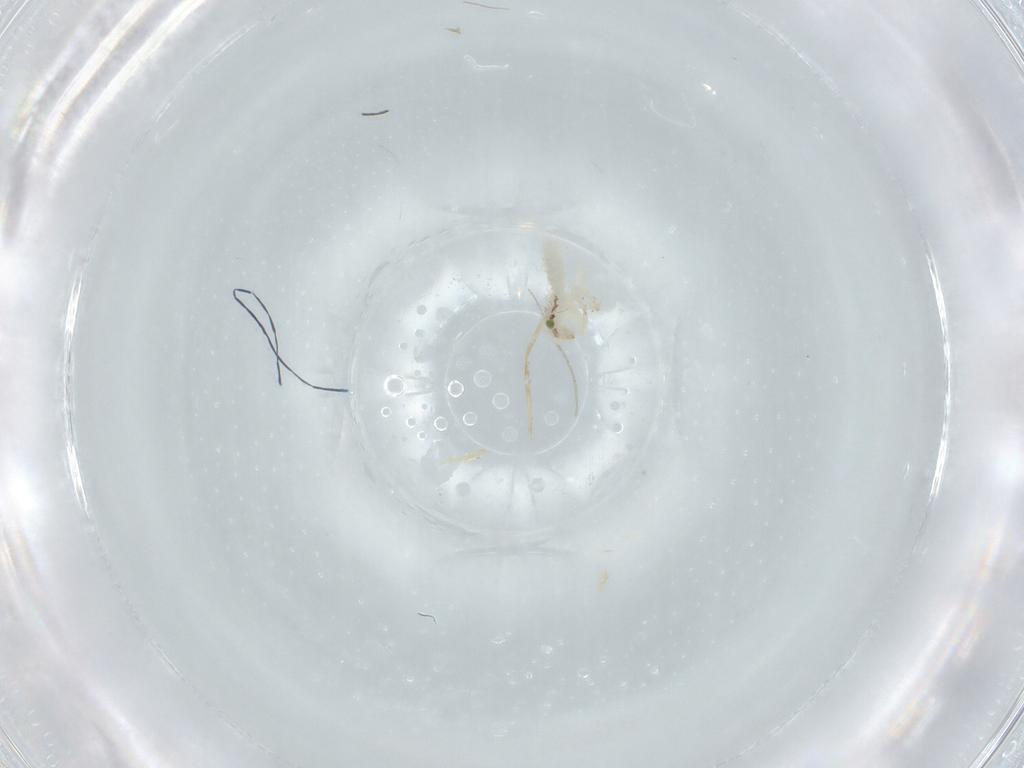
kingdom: Animalia
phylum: Arthropoda
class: Insecta
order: Psocodea
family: Lepidopsocidae
